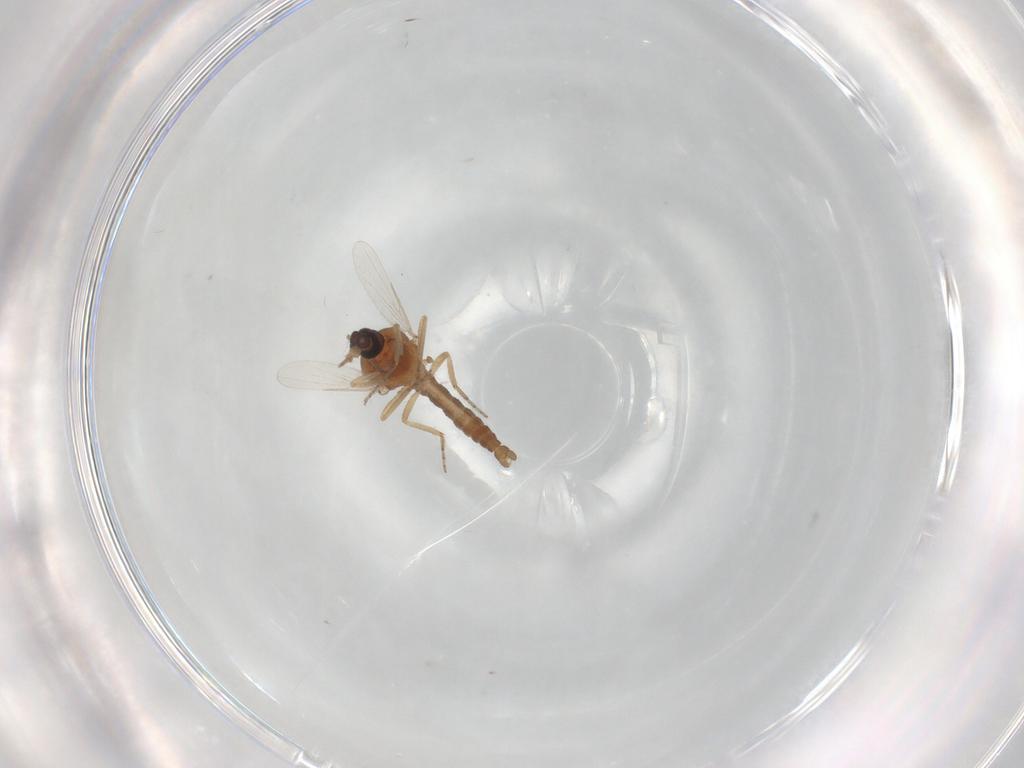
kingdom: Animalia
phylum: Arthropoda
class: Insecta
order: Diptera
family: Ceratopogonidae
